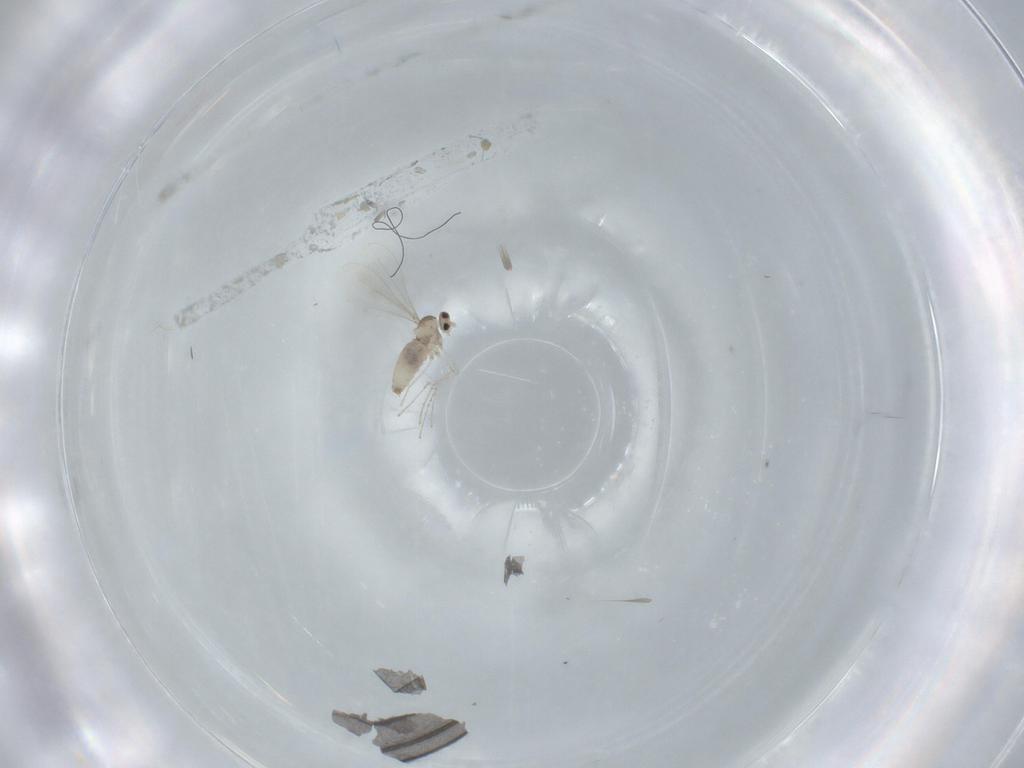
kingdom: Animalia
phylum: Arthropoda
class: Insecta
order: Diptera
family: Cecidomyiidae
